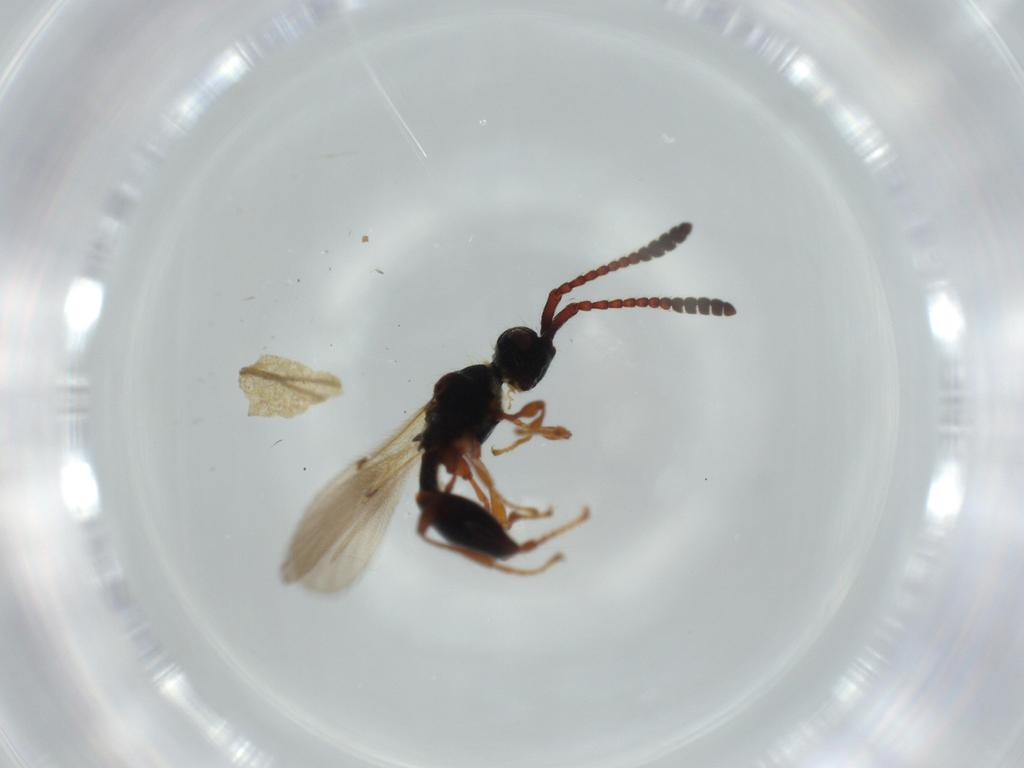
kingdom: Animalia
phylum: Arthropoda
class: Insecta
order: Hymenoptera
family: Diapriidae
